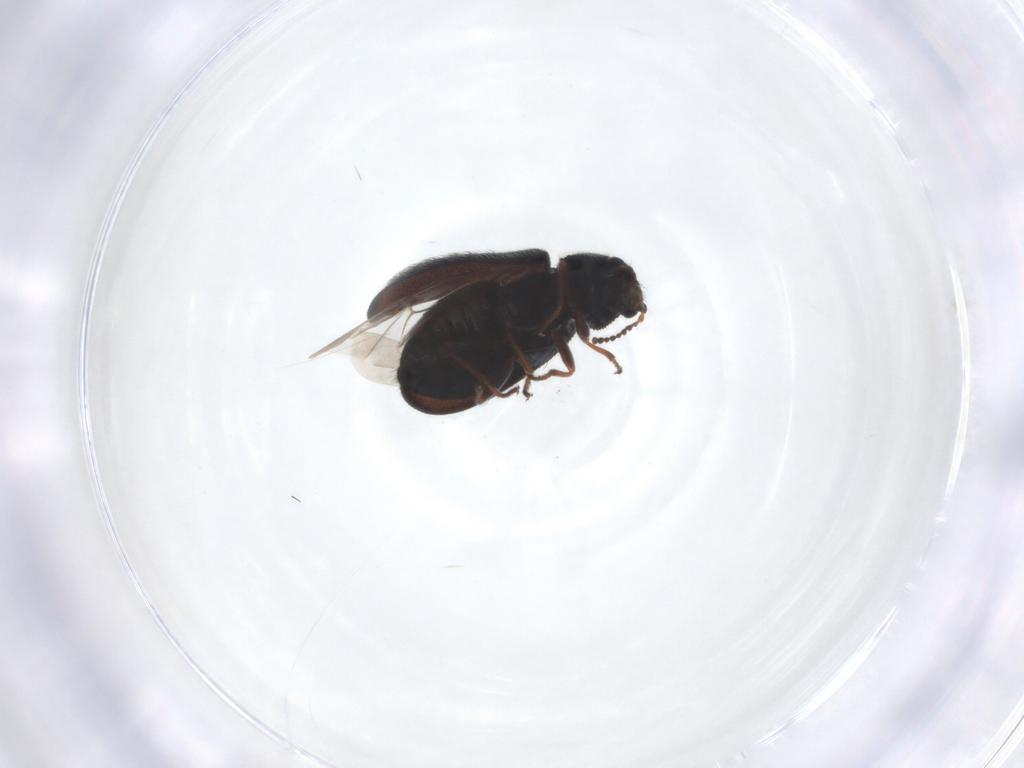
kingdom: Animalia
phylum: Arthropoda
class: Insecta
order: Coleoptera
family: Melyridae
